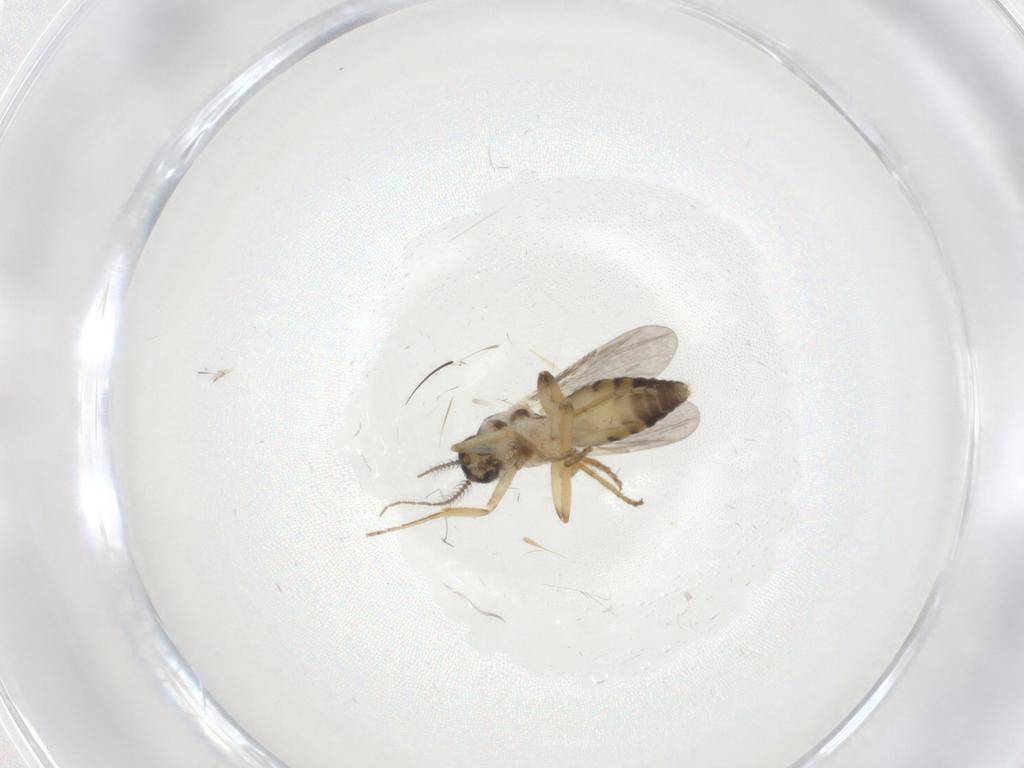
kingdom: Animalia
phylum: Arthropoda
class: Insecta
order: Diptera
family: Ceratopogonidae
